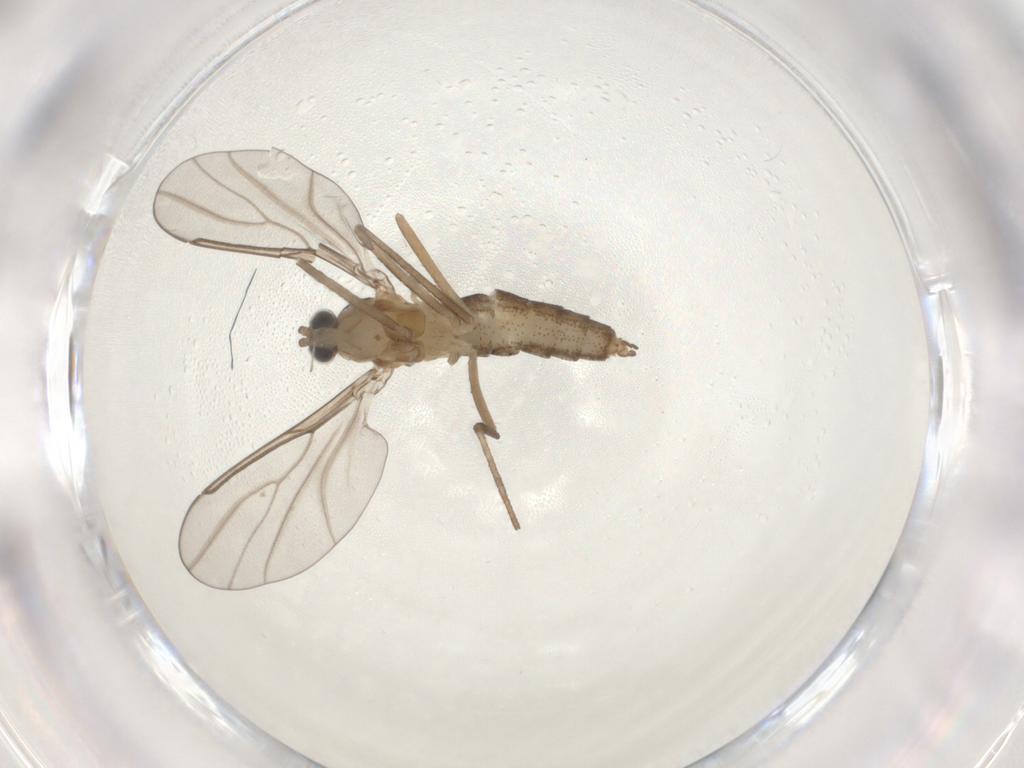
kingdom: Animalia
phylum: Arthropoda
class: Insecta
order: Diptera
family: Cecidomyiidae
